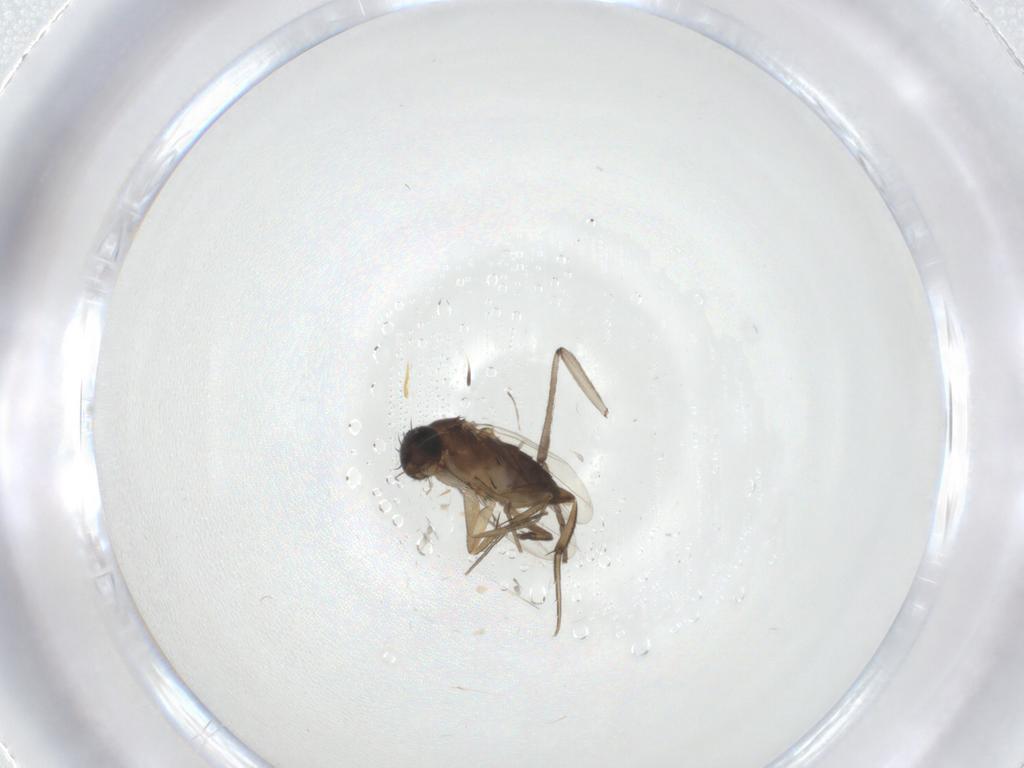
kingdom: Animalia
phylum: Arthropoda
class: Insecta
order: Diptera
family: Phoridae
